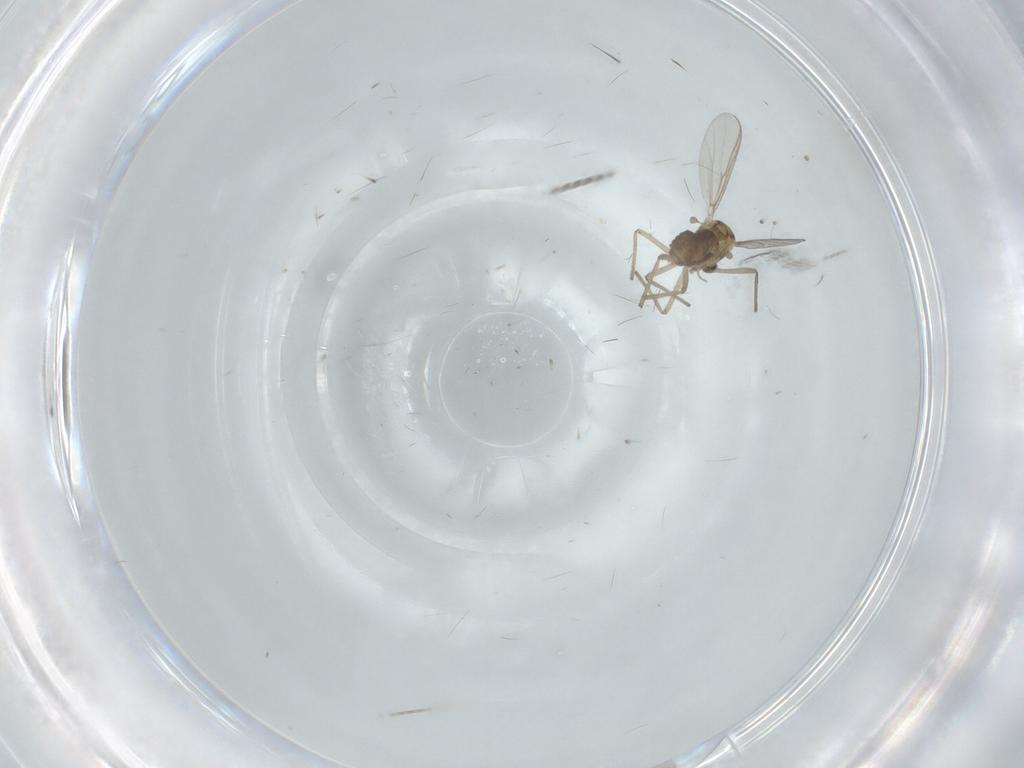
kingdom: Animalia
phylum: Arthropoda
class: Insecta
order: Diptera
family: Chironomidae
